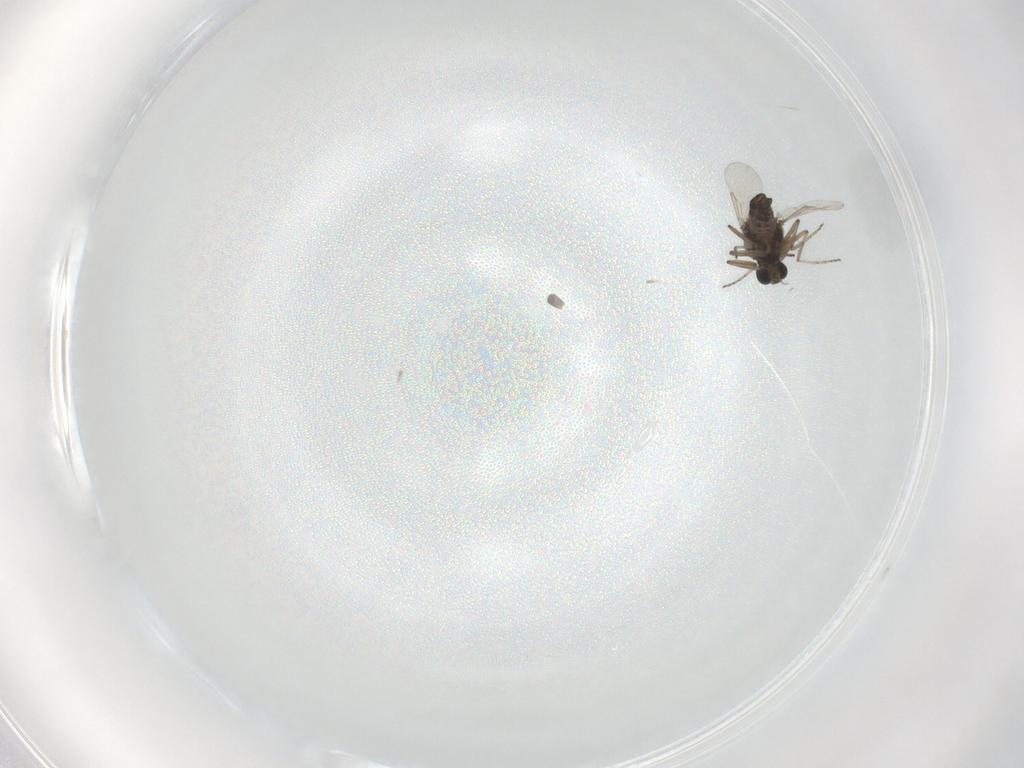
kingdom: Animalia
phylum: Arthropoda
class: Insecta
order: Diptera
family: Ceratopogonidae
